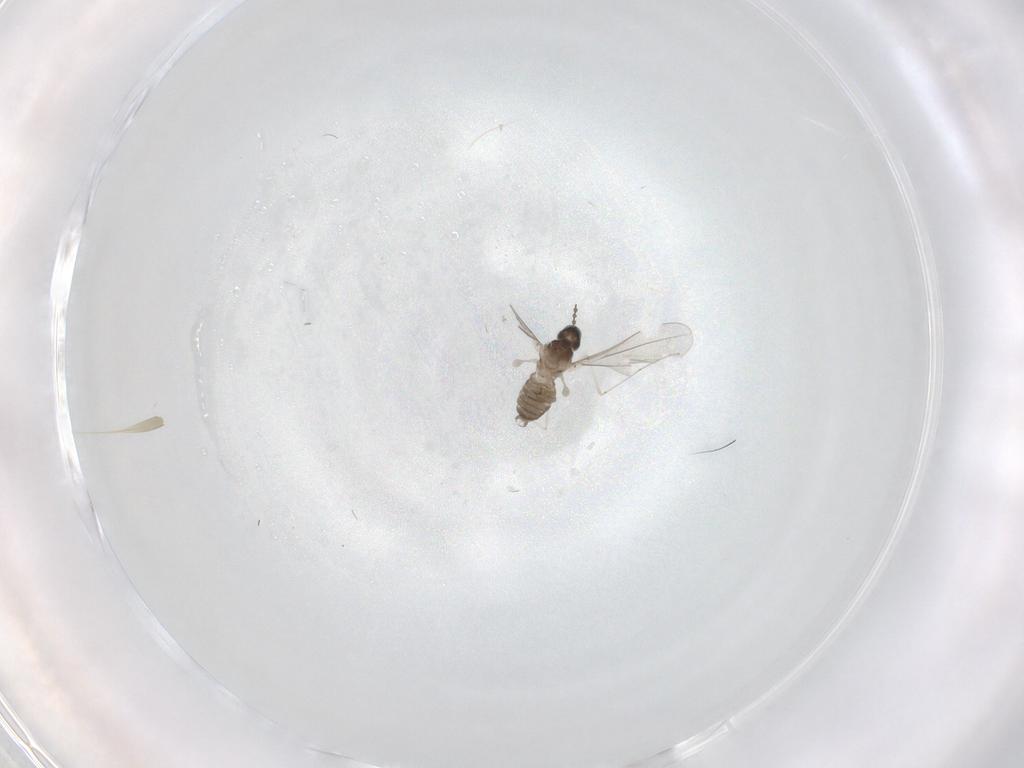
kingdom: Animalia
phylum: Arthropoda
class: Insecta
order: Diptera
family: Cecidomyiidae
